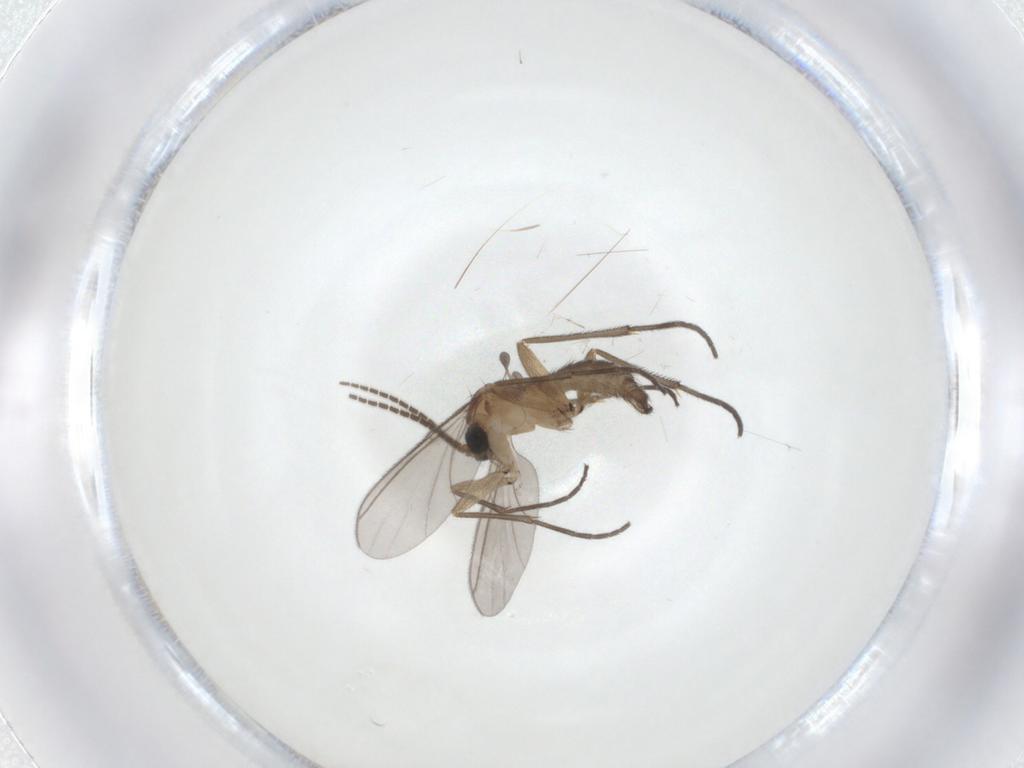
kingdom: Animalia
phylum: Arthropoda
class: Insecta
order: Diptera
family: Sciaridae
